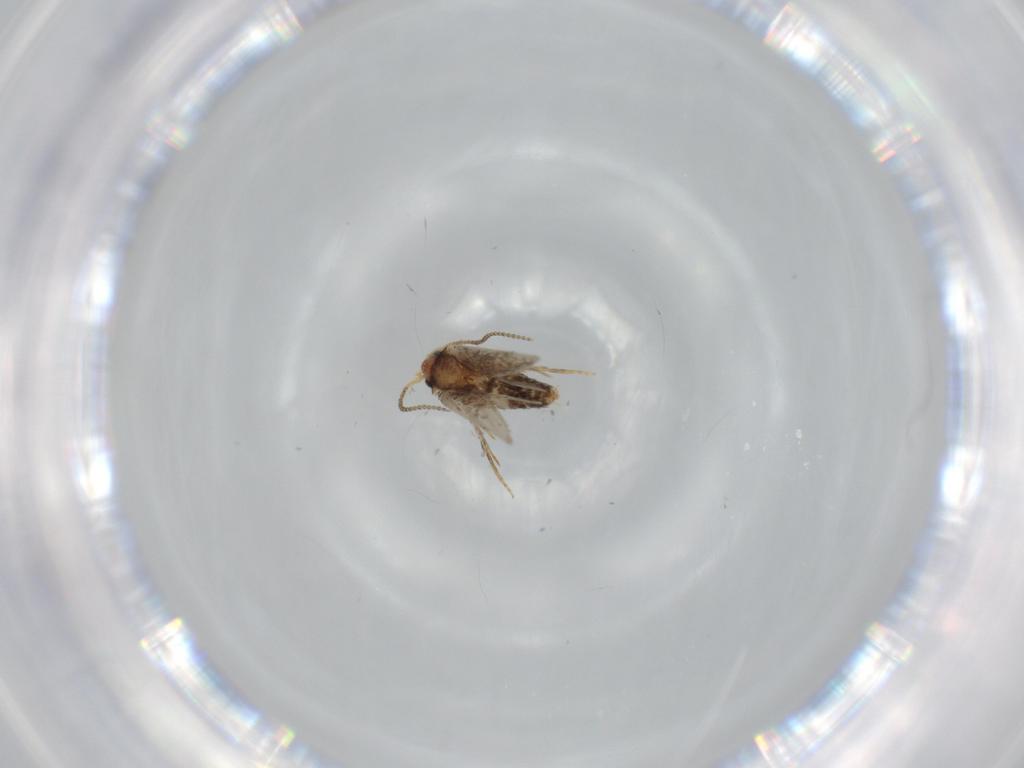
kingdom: Animalia
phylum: Arthropoda
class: Insecta
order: Lepidoptera
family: Nepticulidae
